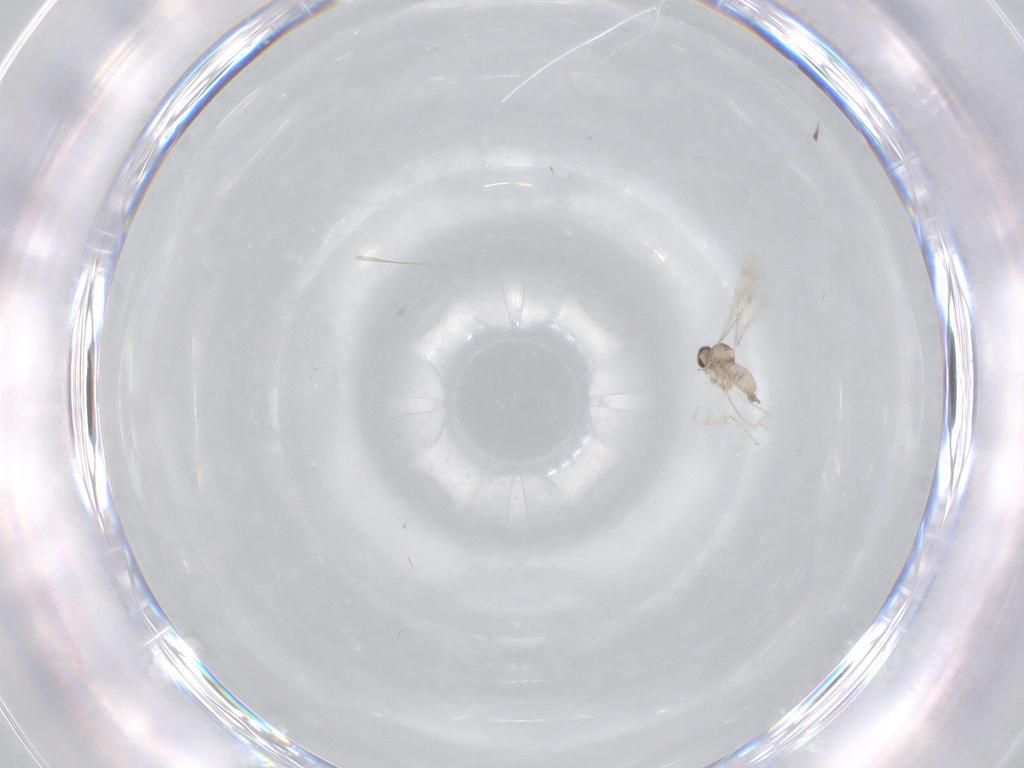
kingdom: Animalia
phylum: Arthropoda
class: Insecta
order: Diptera
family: Cecidomyiidae
